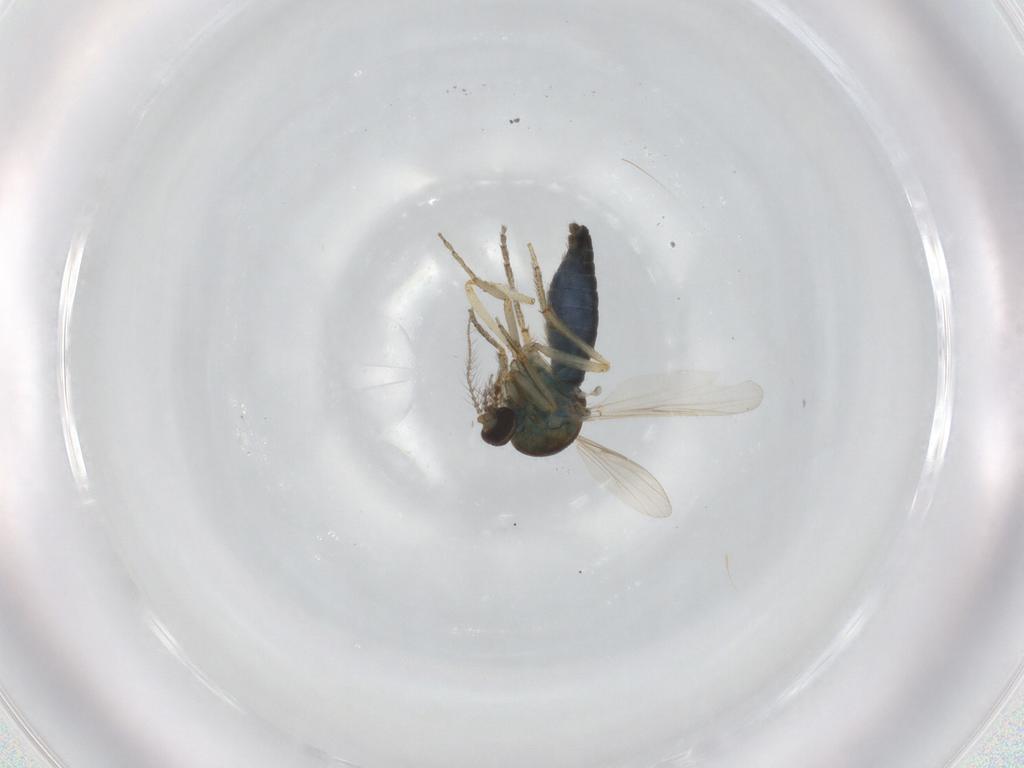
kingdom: Animalia
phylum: Arthropoda
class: Insecta
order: Diptera
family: Ceratopogonidae
